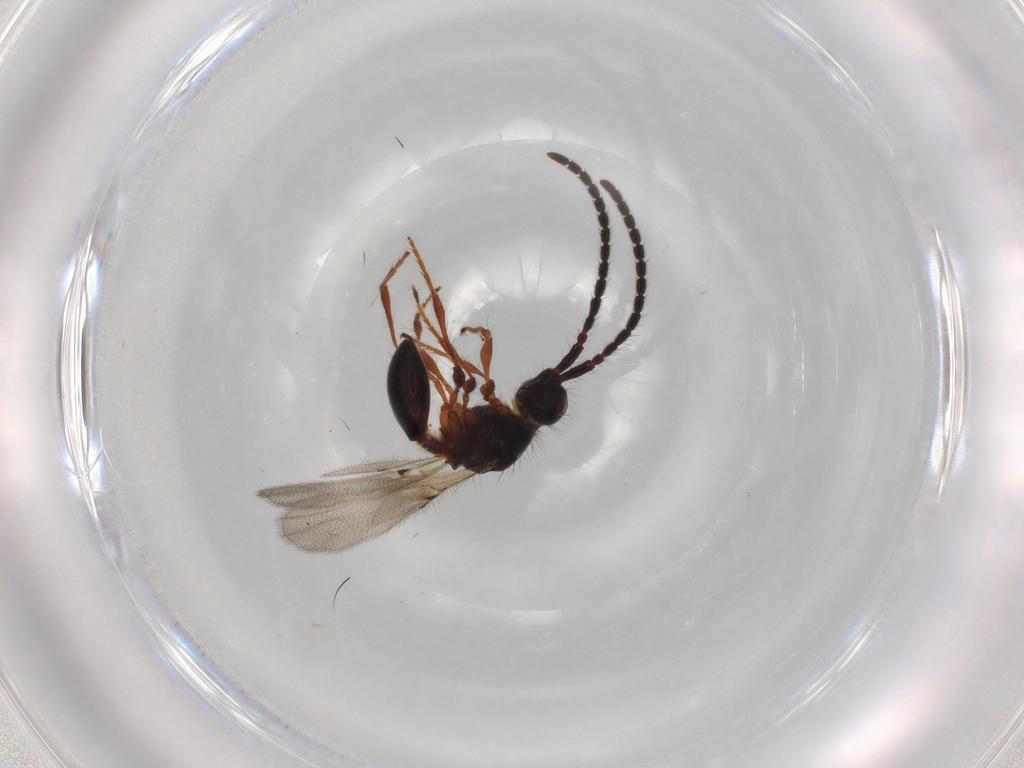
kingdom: Animalia
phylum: Arthropoda
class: Insecta
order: Hymenoptera
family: Diapriidae
